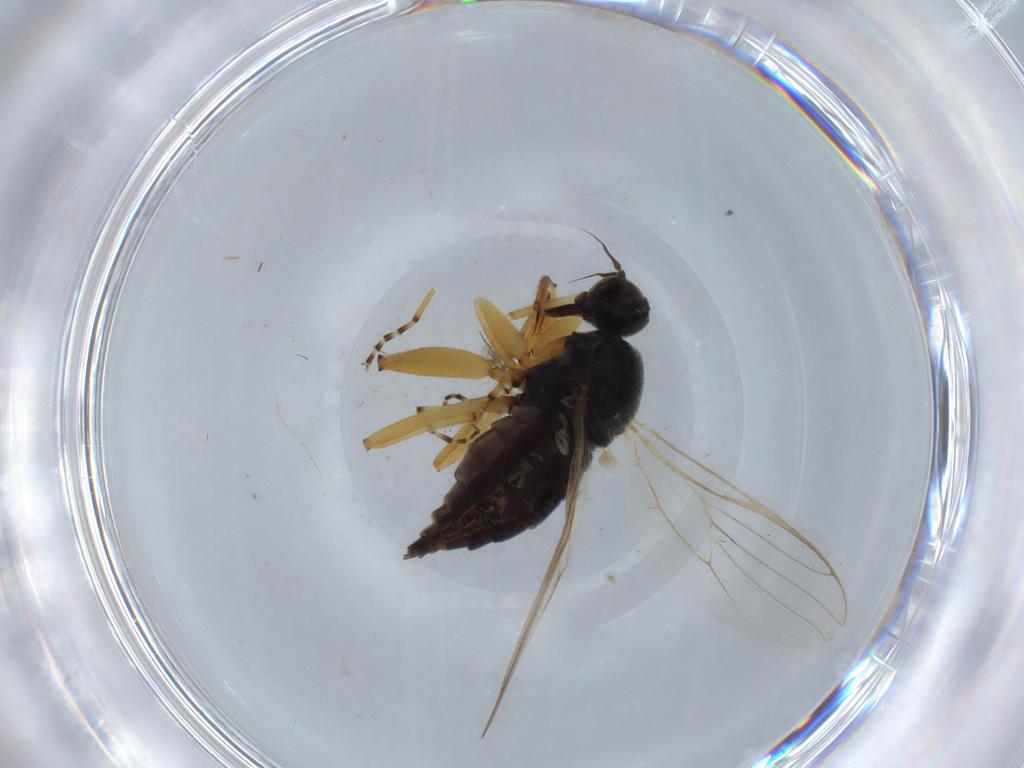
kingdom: Animalia
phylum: Arthropoda
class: Insecta
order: Diptera
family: Hybotidae
